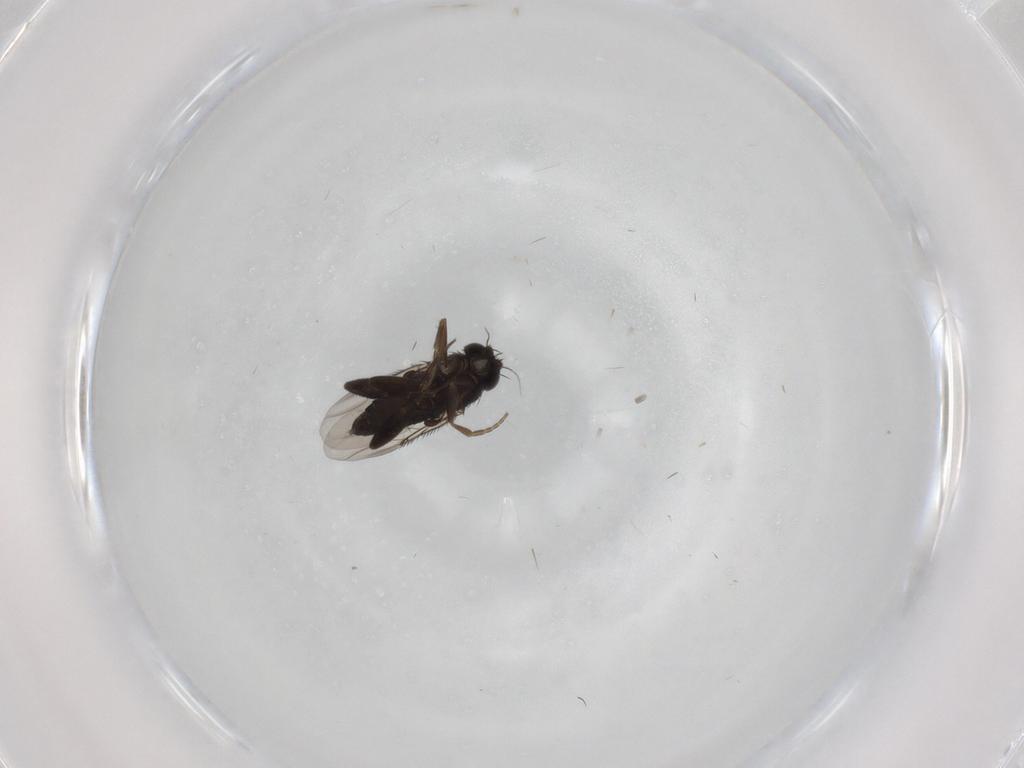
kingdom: Animalia
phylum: Arthropoda
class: Insecta
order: Diptera
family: Phoridae
